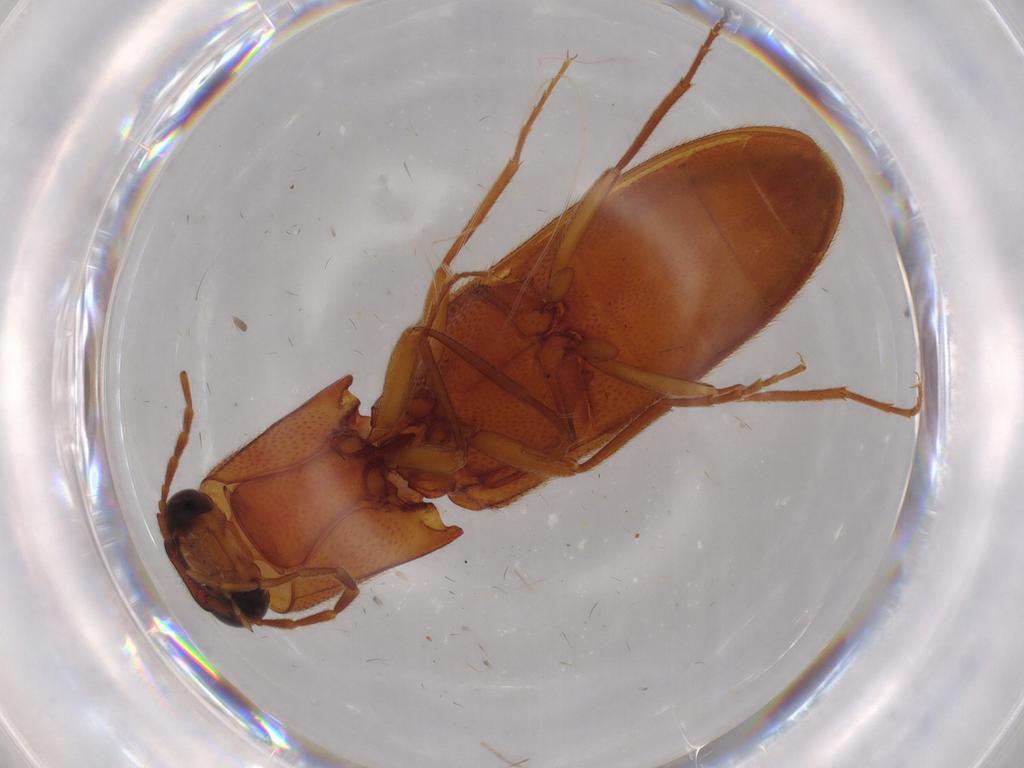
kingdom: Animalia
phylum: Arthropoda
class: Insecta
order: Coleoptera
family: Elateridae
